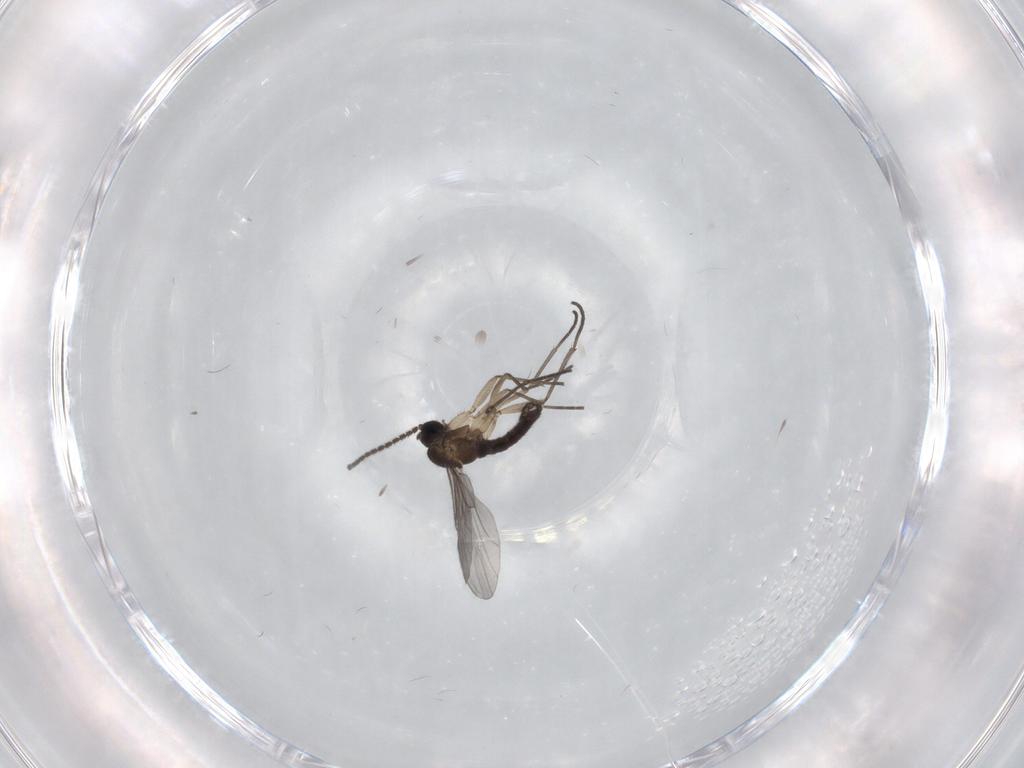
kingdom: Animalia
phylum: Arthropoda
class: Insecta
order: Diptera
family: Sciaridae
